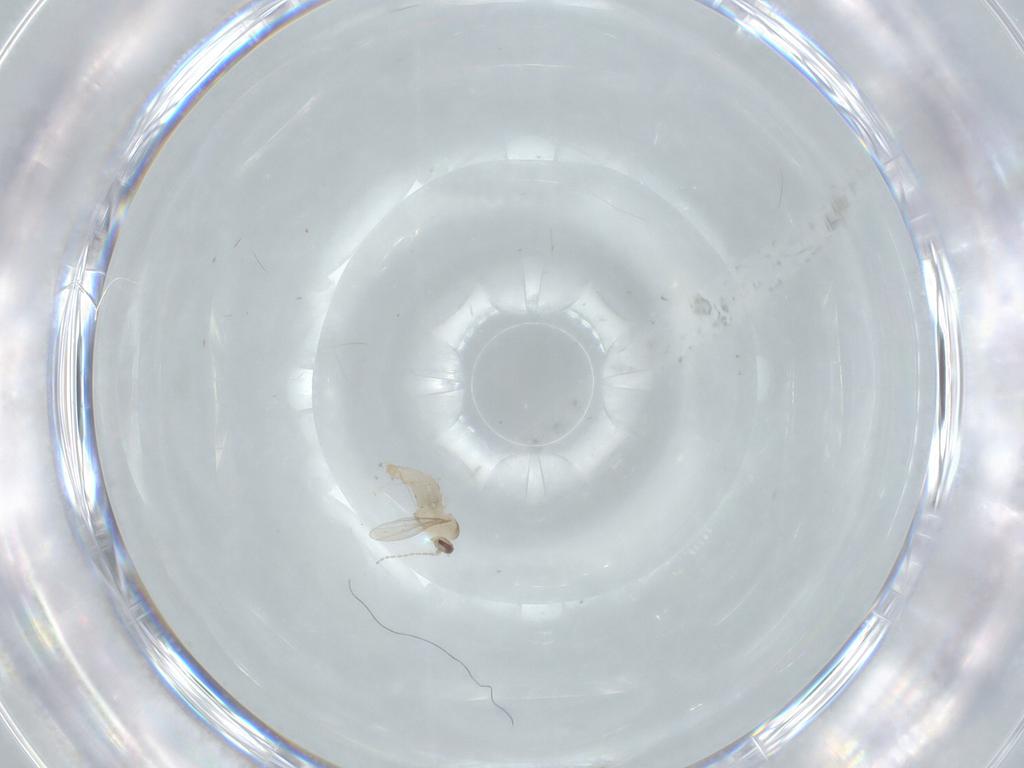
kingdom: Animalia
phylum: Arthropoda
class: Insecta
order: Diptera
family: Cecidomyiidae
